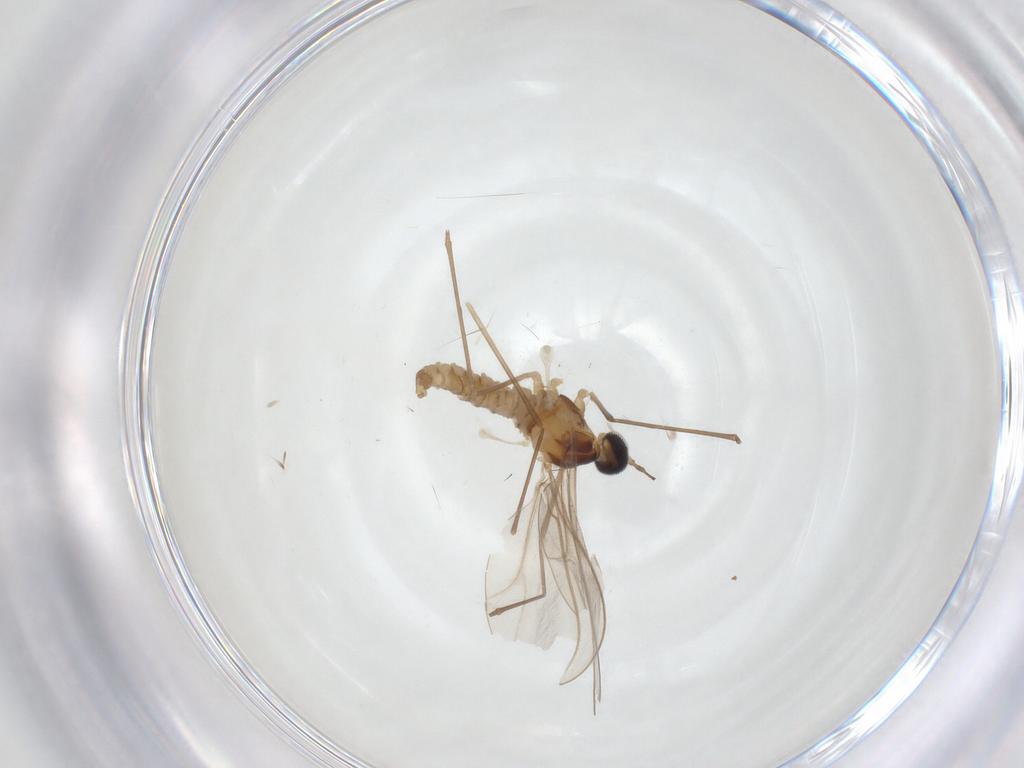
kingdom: Animalia
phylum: Arthropoda
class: Insecta
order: Diptera
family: Cecidomyiidae
